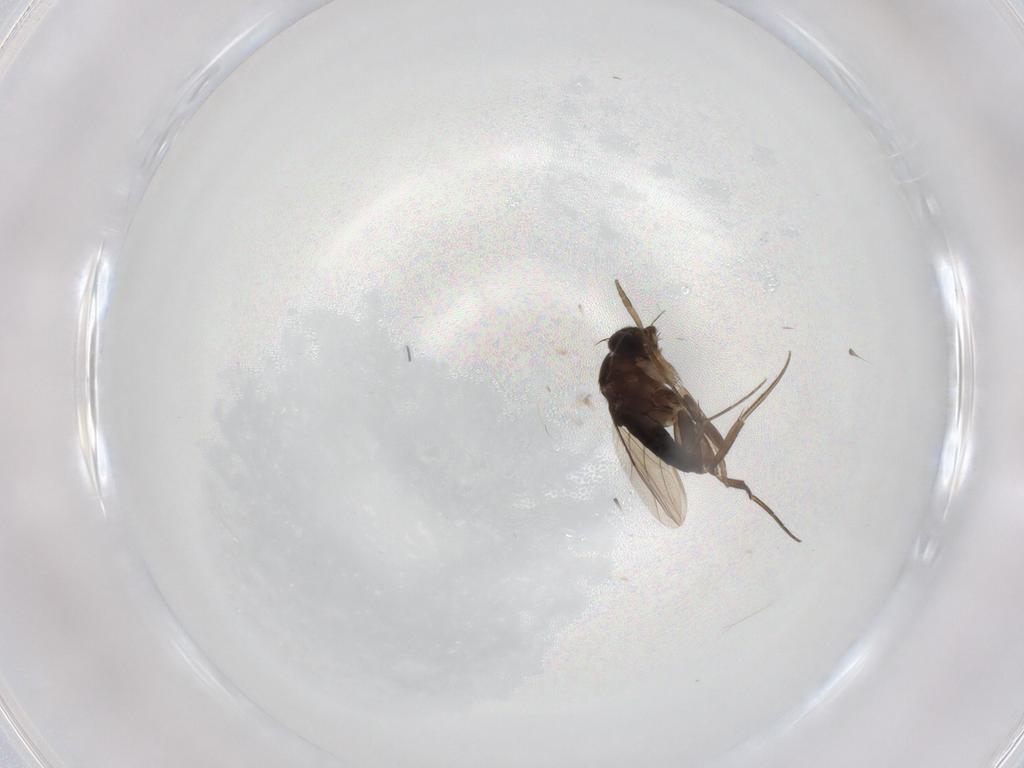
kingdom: Animalia
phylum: Arthropoda
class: Insecta
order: Diptera
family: Phoridae
